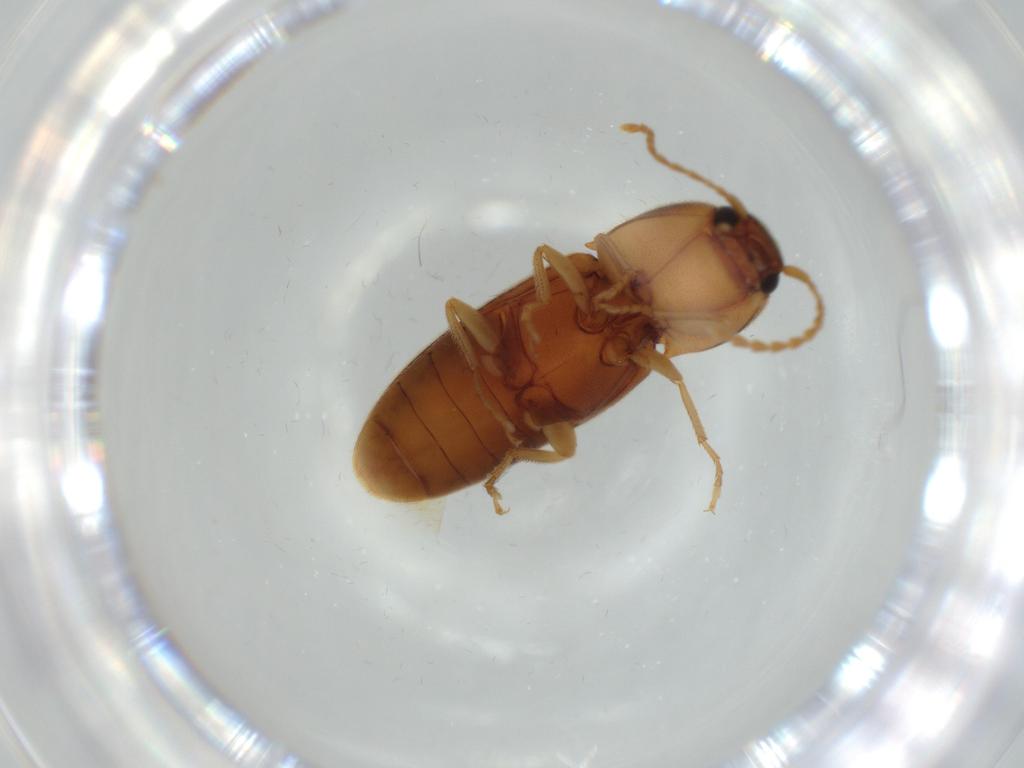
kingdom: Animalia
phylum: Arthropoda
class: Insecta
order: Coleoptera
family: Elateridae
